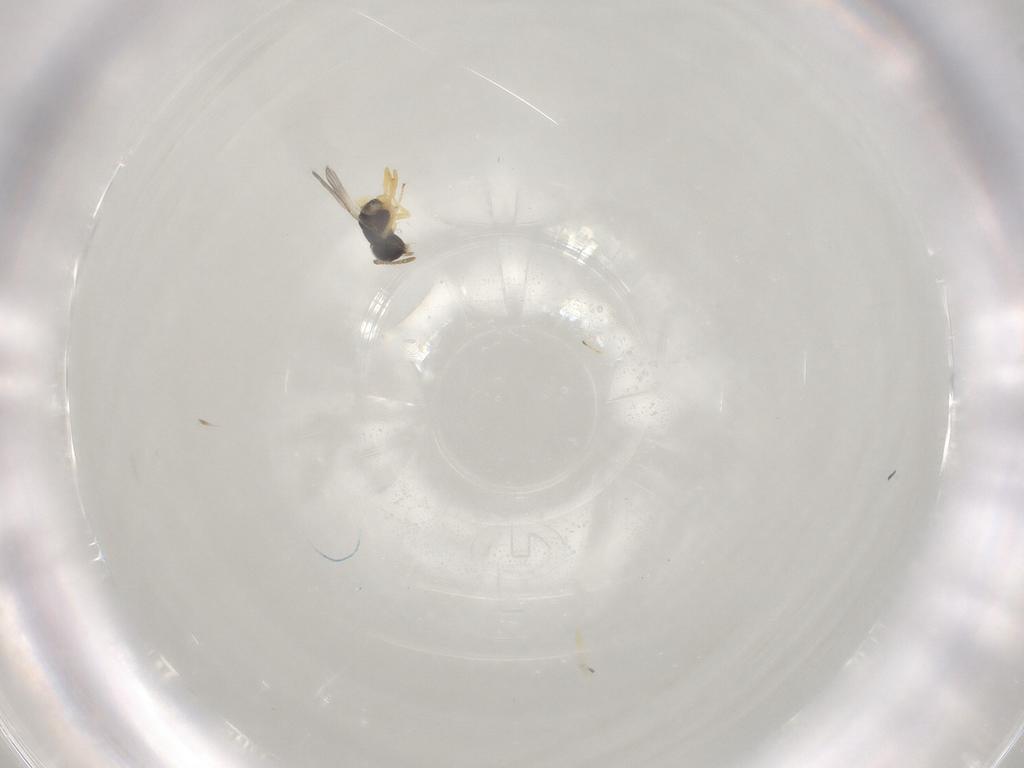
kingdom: Animalia
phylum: Arthropoda
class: Insecta
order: Hymenoptera
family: Encyrtidae
